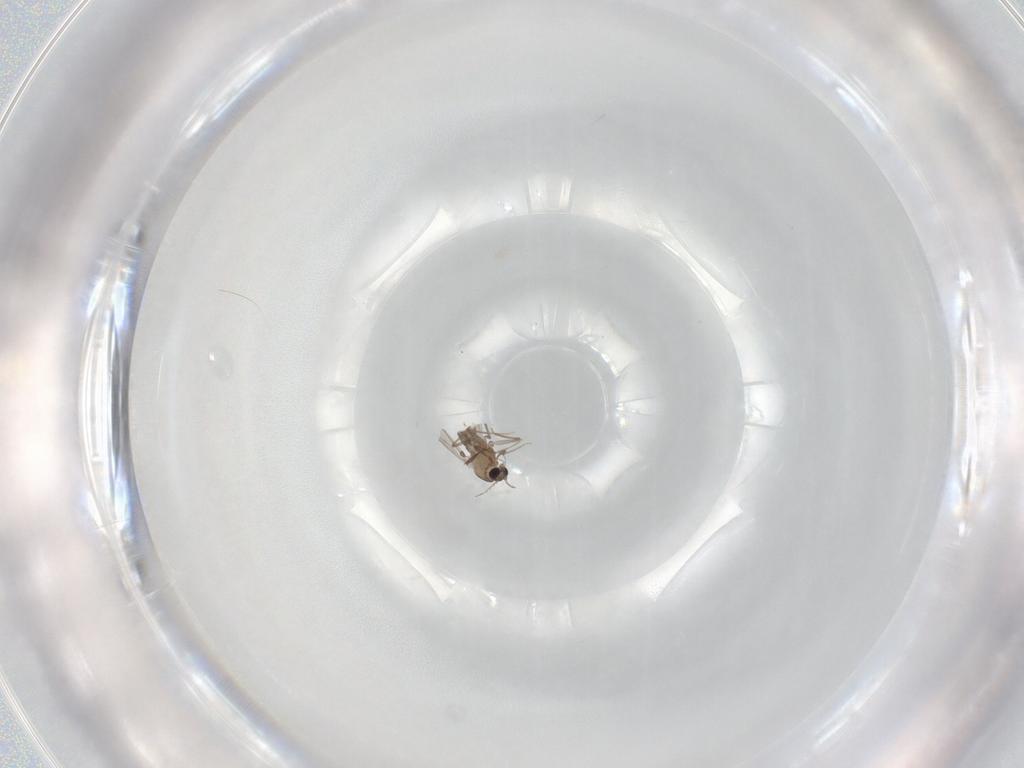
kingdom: Animalia
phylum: Arthropoda
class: Insecta
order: Diptera
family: Chironomidae
